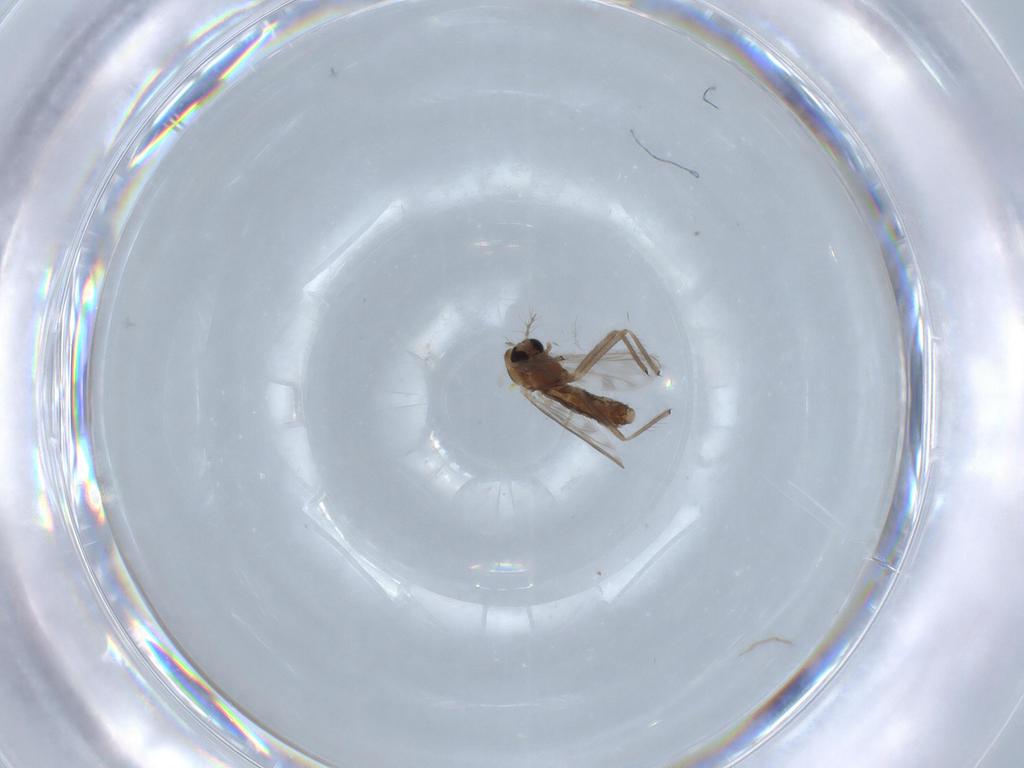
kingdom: Animalia
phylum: Arthropoda
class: Insecta
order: Diptera
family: Chironomidae
